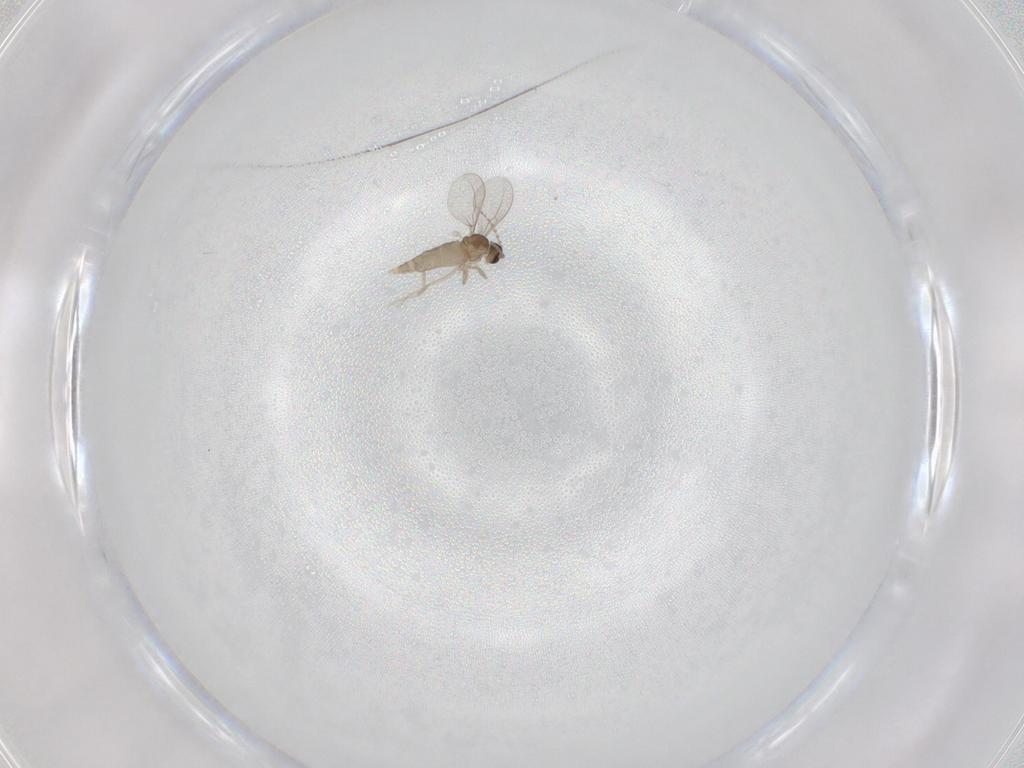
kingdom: Animalia
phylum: Arthropoda
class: Insecta
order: Diptera
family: Cecidomyiidae
